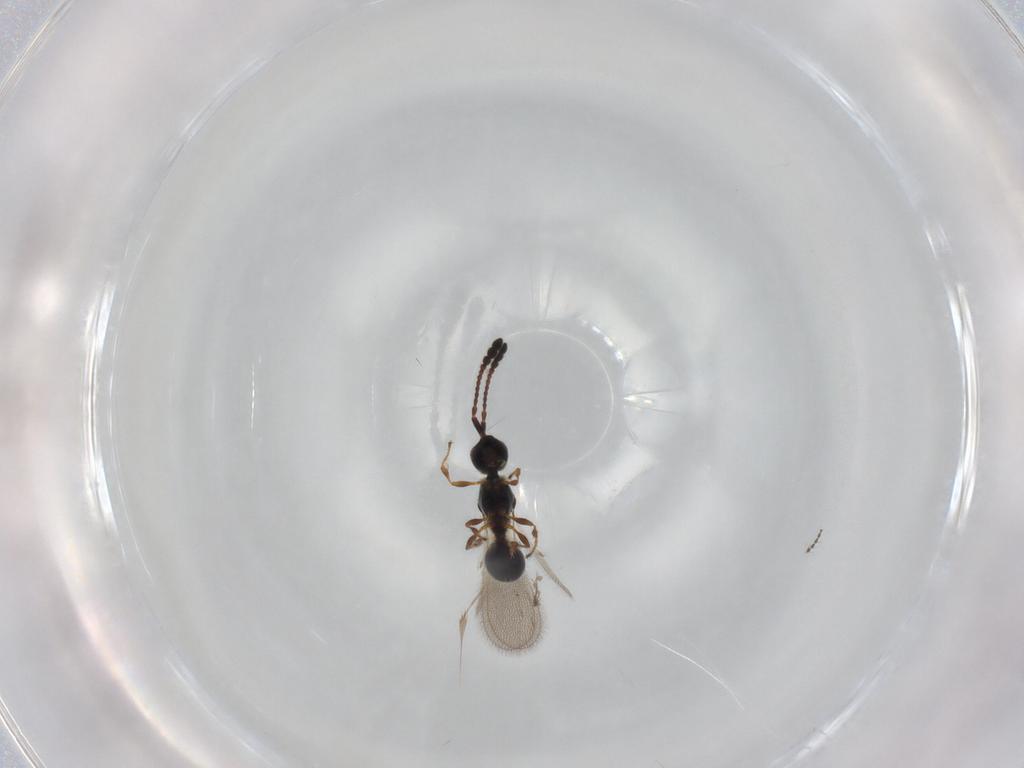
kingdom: Animalia
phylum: Arthropoda
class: Insecta
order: Hymenoptera
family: Diapriidae
